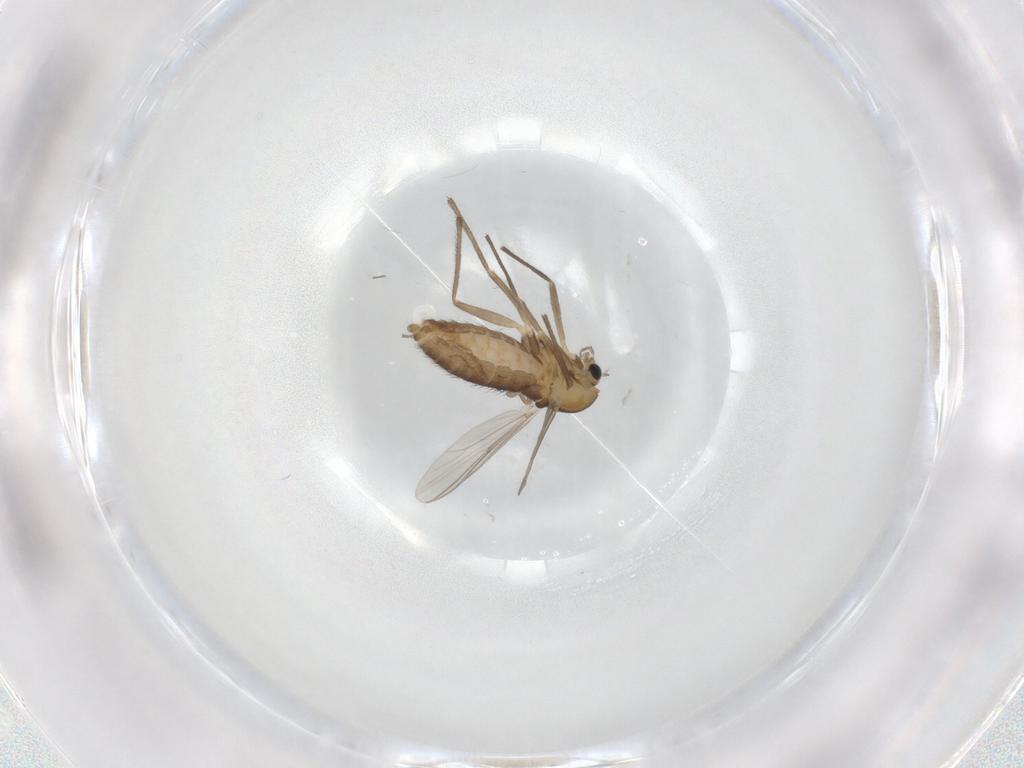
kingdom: Animalia
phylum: Arthropoda
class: Insecta
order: Diptera
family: Chironomidae
